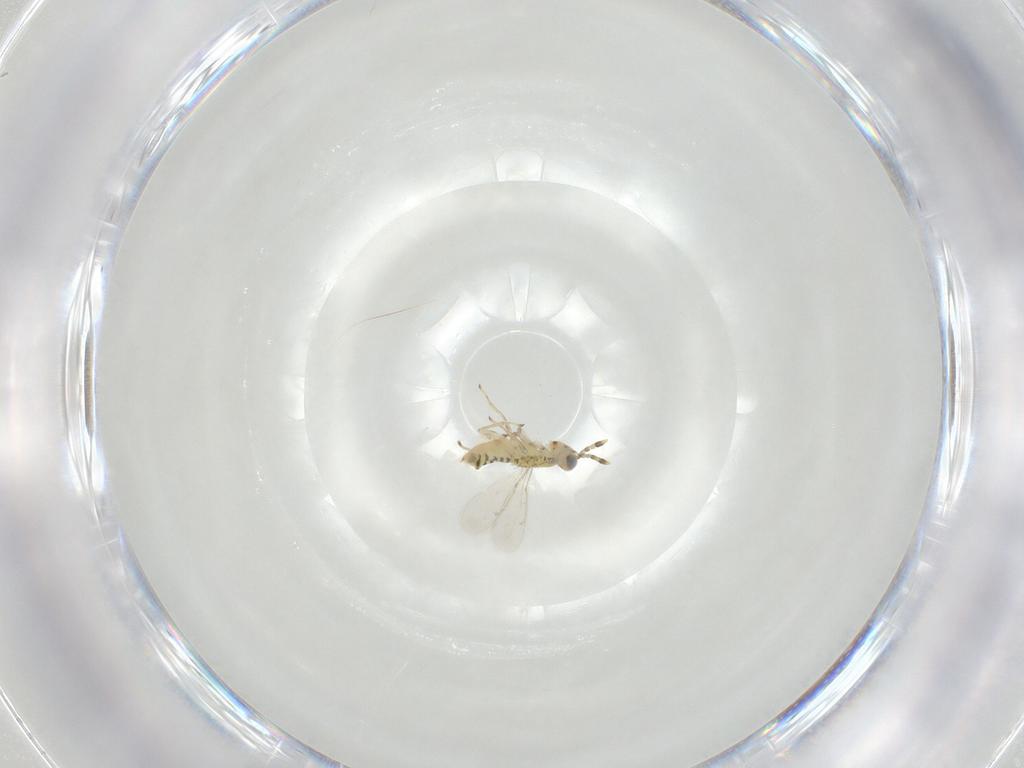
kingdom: Animalia
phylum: Arthropoda
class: Insecta
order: Hymenoptera
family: Aphelinidae
